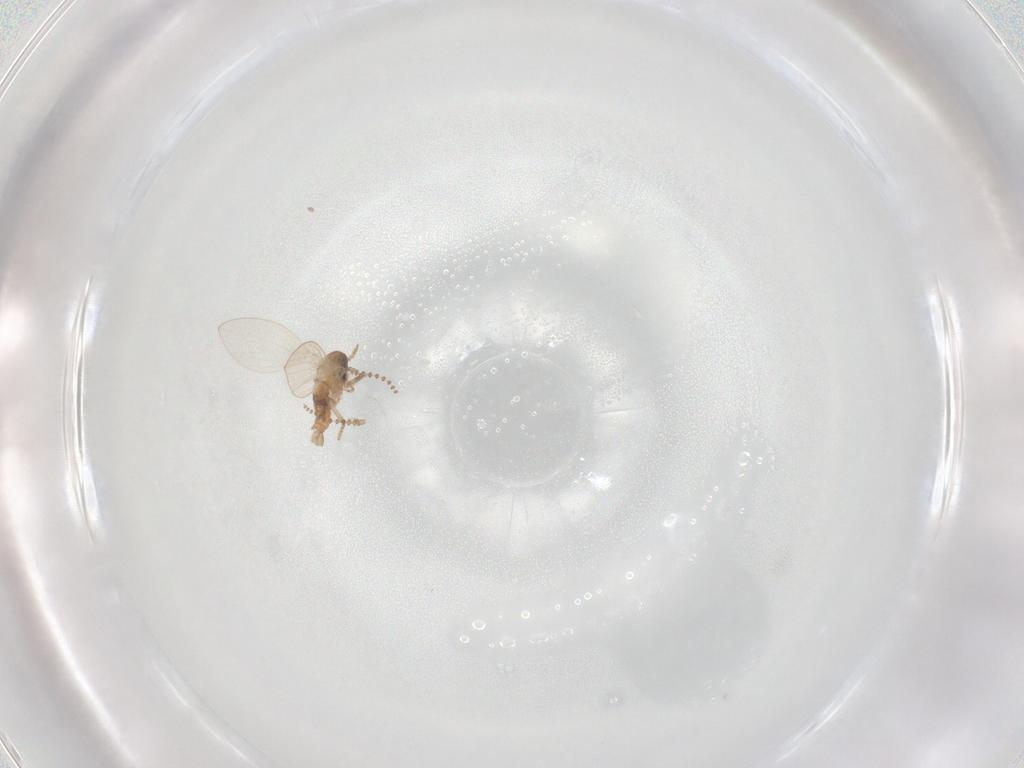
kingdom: Animalia
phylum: Arthropoda
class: Insecta
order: Diptera
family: Psychodidae
